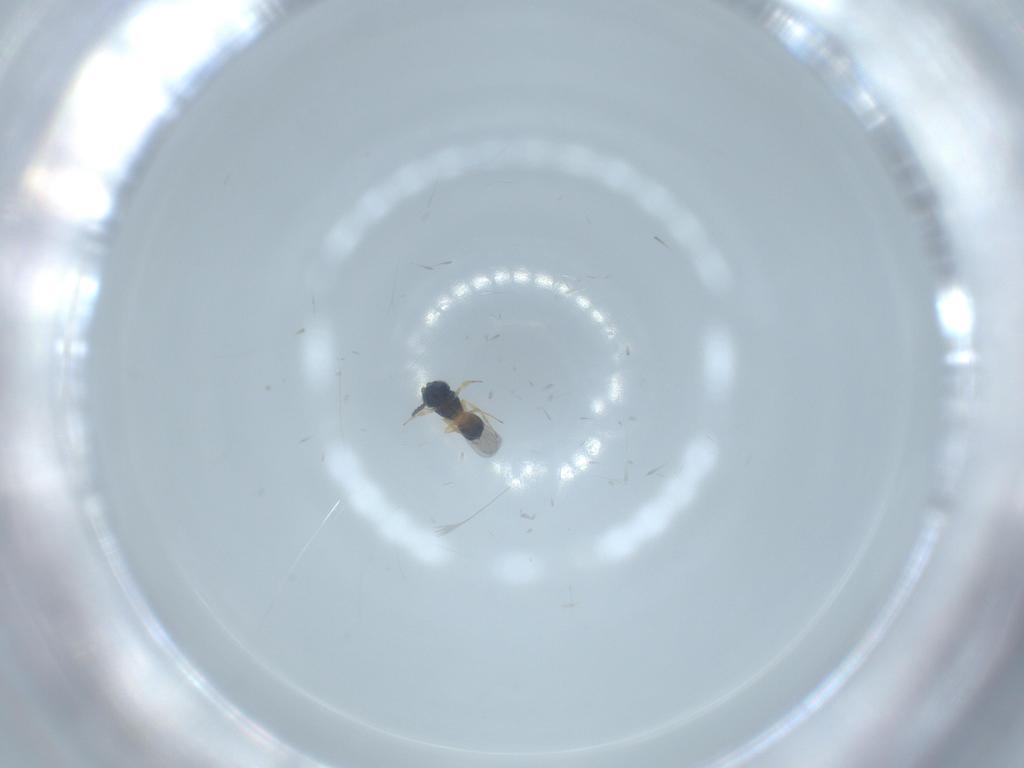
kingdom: Animalia
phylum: Arthropoda
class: Insecta
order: Hymenoptera
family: Scelionidae
